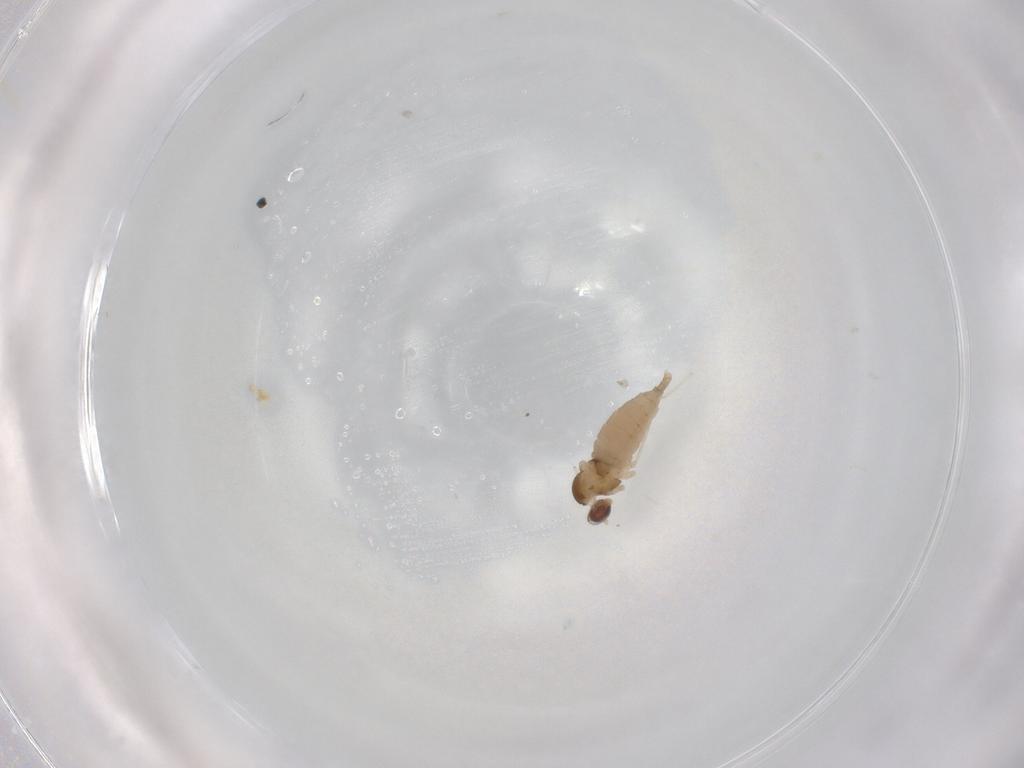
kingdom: Animalia
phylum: Arthropoda
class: Insecta
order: Diptera
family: Cecidomyiidae
